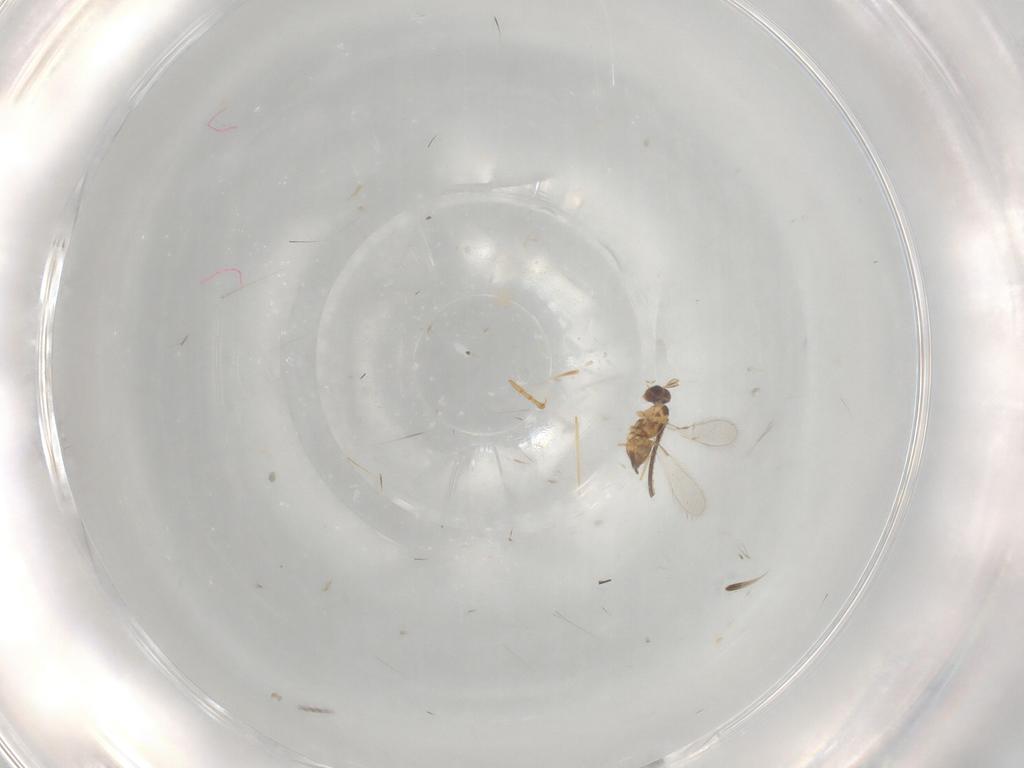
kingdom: Animalia
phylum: Arthropoda
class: Insecta
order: Hymenoptera
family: Mymaridae
